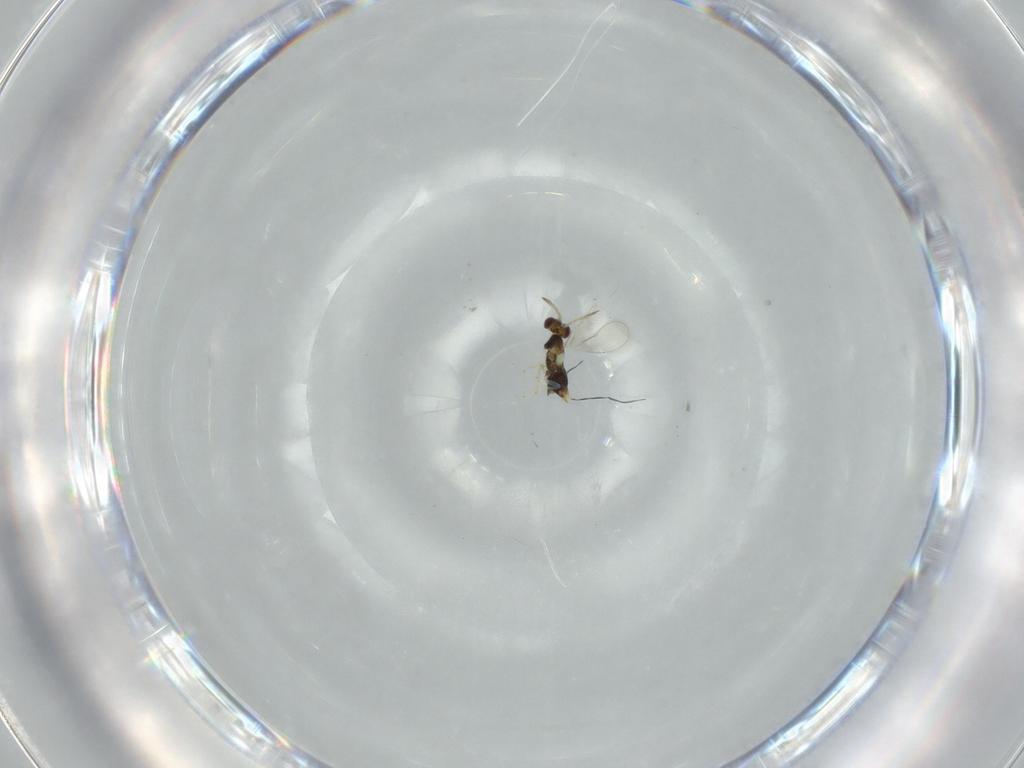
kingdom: Animalia
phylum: Arthropoda
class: Insecta
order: Hymenoptera
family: Aphelinidae
